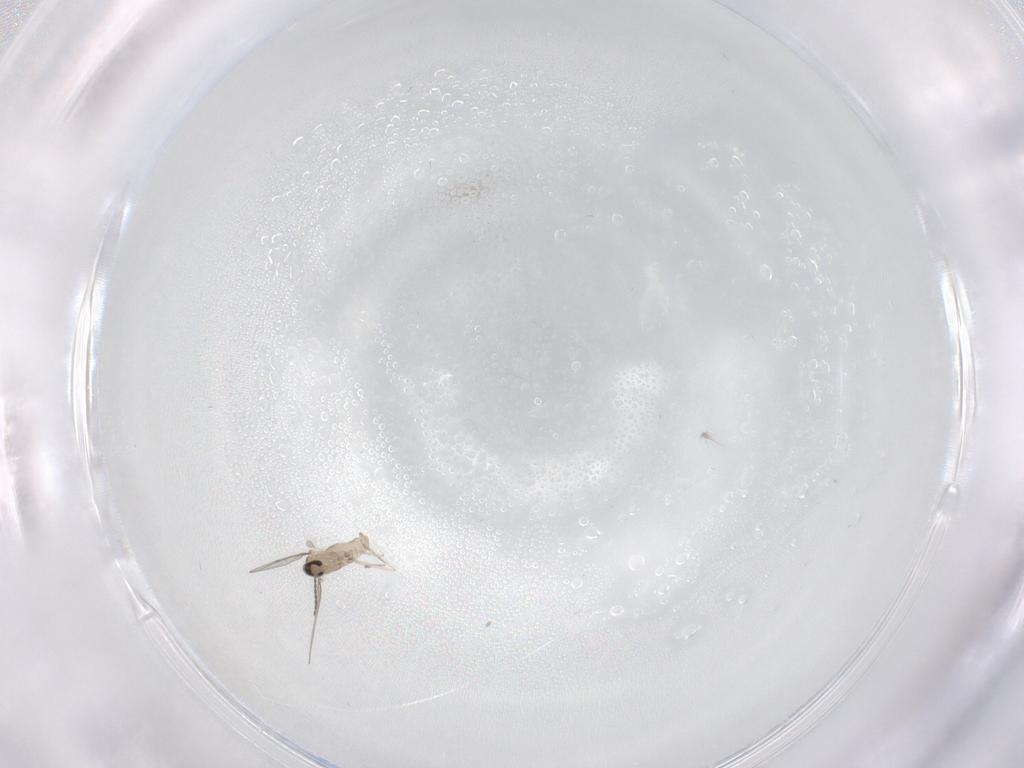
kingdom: Animalia
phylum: Arthropoda
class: Insecta
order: Diptera
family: Cecidomyiidae
